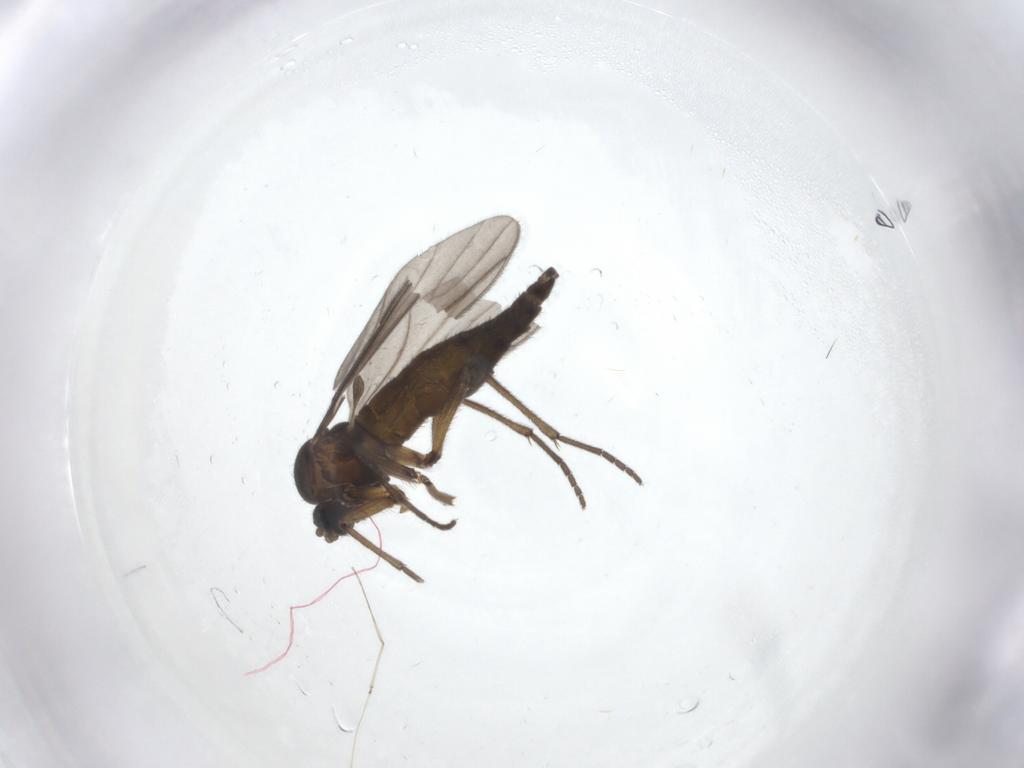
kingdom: Animalia
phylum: Arthropoda
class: Insecta
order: Diptera
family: Sciaridae
